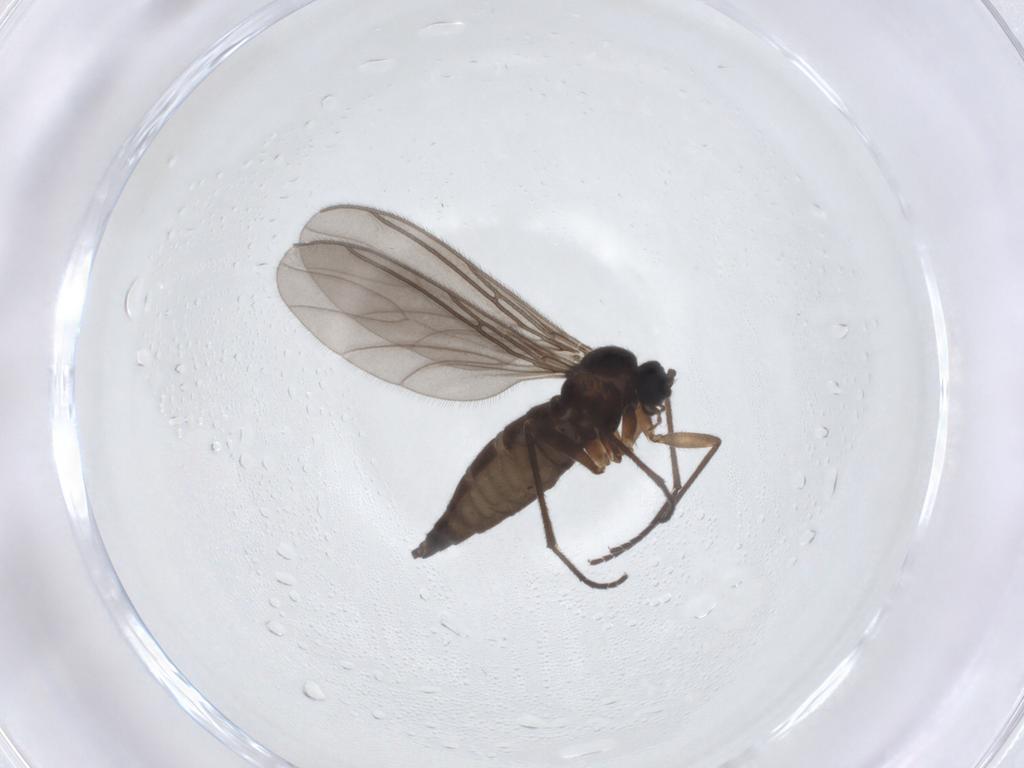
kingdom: Animalia
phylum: Arthropoda
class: Insecta
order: Diptera
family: Sciaridae
